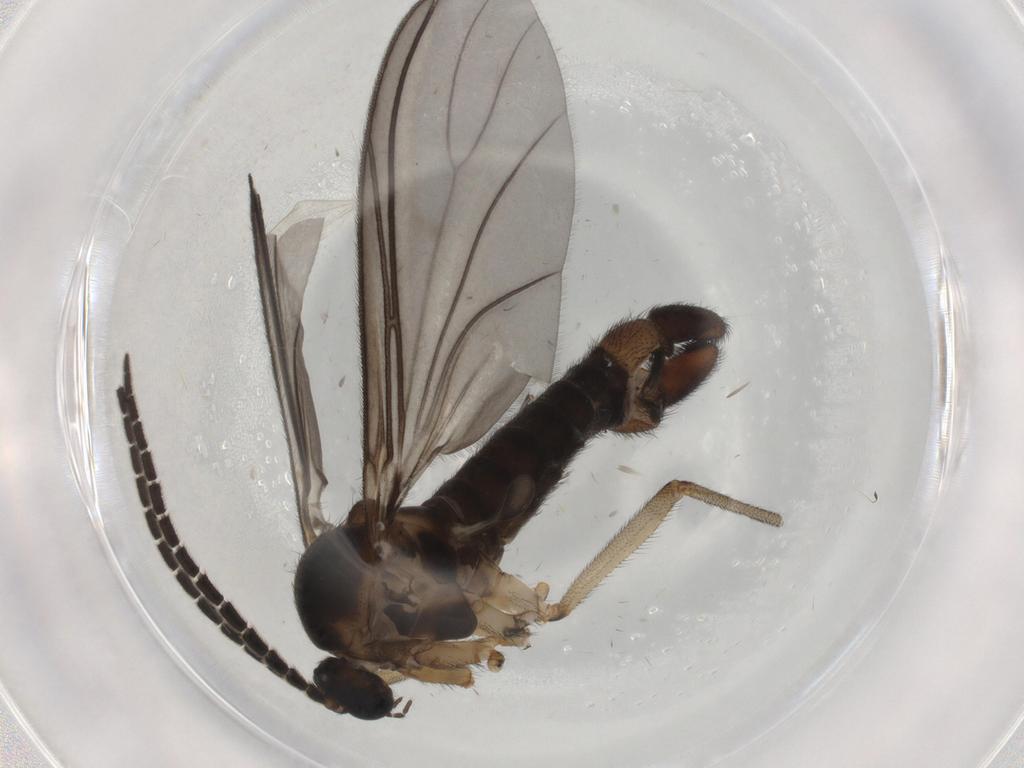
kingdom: Animalia
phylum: Arthropoda
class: Insecta
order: Diptera
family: Sciaridae
